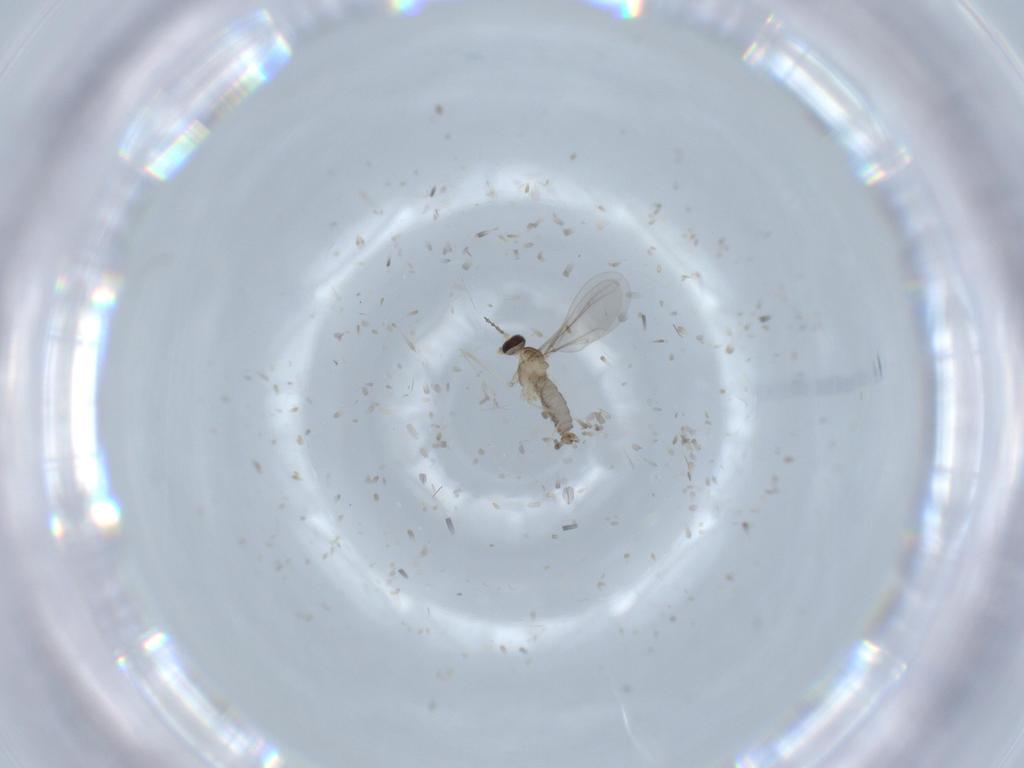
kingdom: Animalia
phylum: Arthropoda
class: Insecta
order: Diptera
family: Cecidomyiidae
